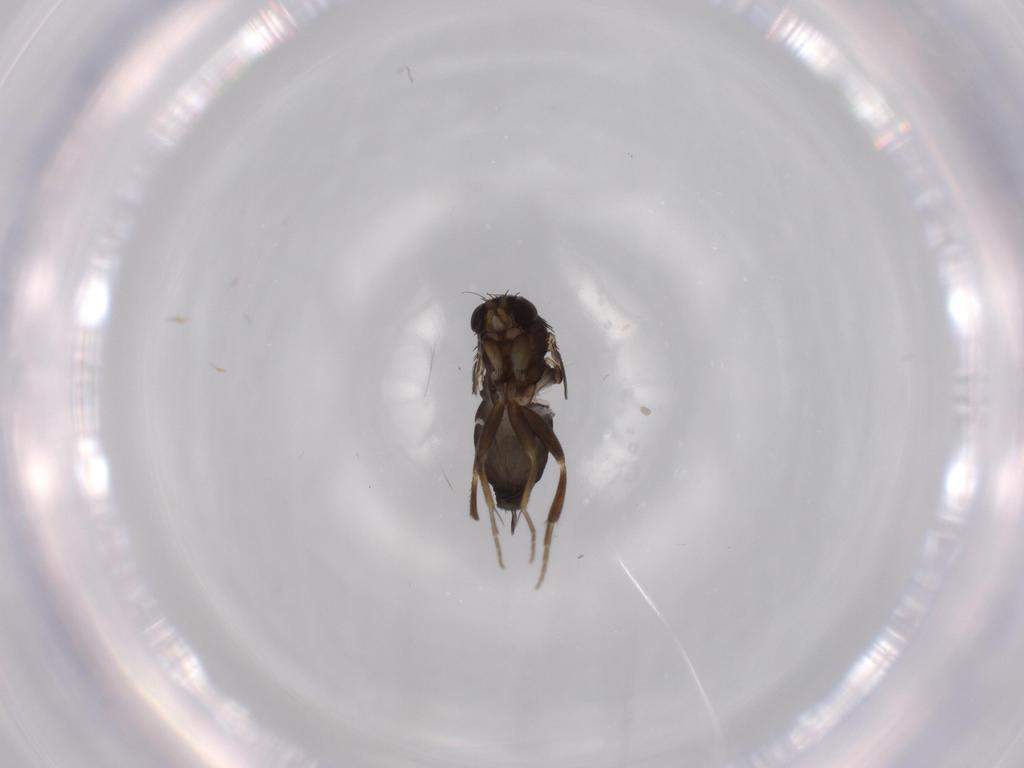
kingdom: Animalia
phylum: Arthropoda
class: Insecta
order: Diptera
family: Phoridae
